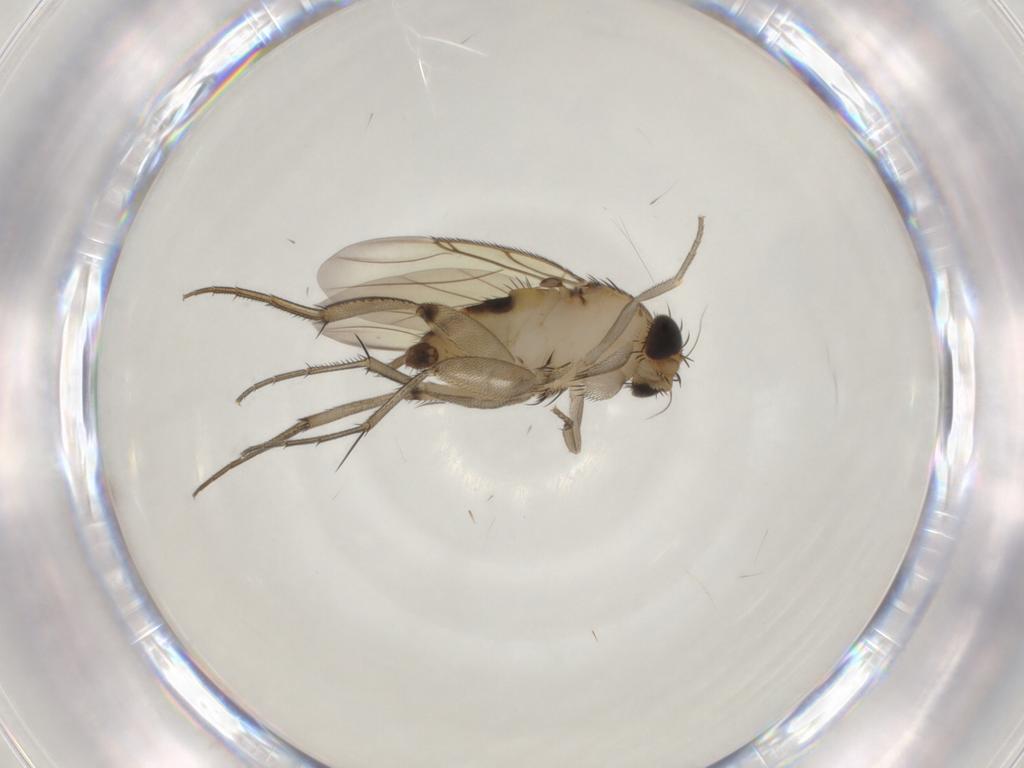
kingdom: Animalia
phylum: Arthropoda
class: Insecta
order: Diptera
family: Phoridae
